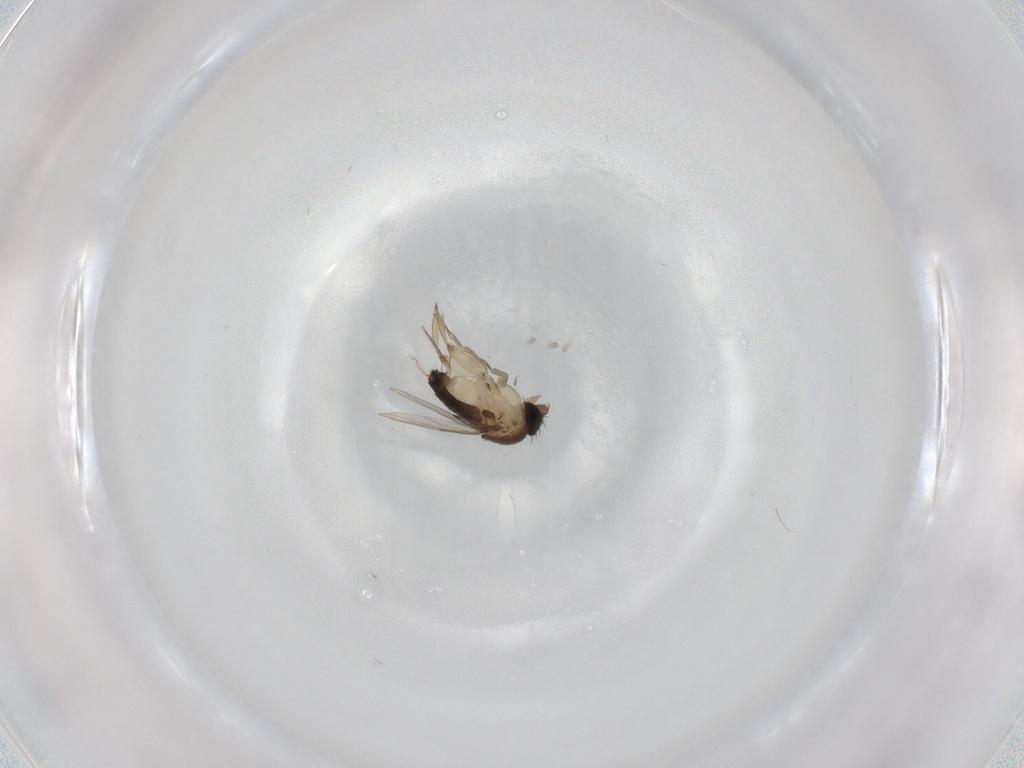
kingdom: Animalia
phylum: Arthropoda
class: Insecta
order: Diptera
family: Phoridae
